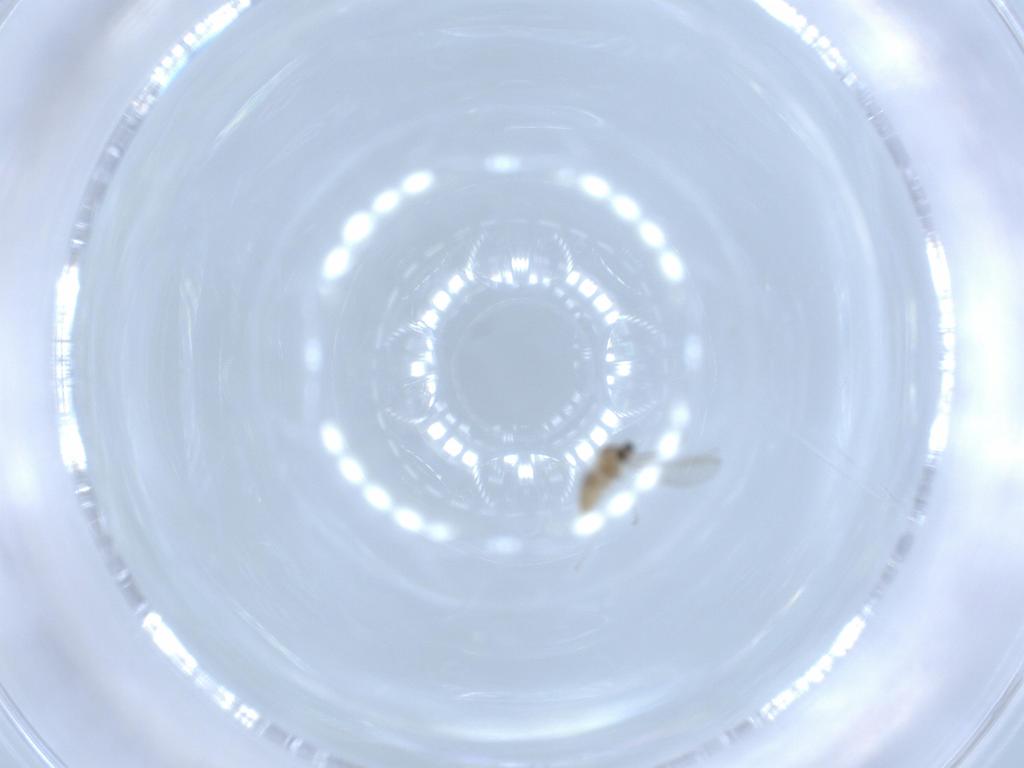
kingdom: Animalia
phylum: Arthropoda
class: Insecta
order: Diptera
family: Cecidomyiidae
